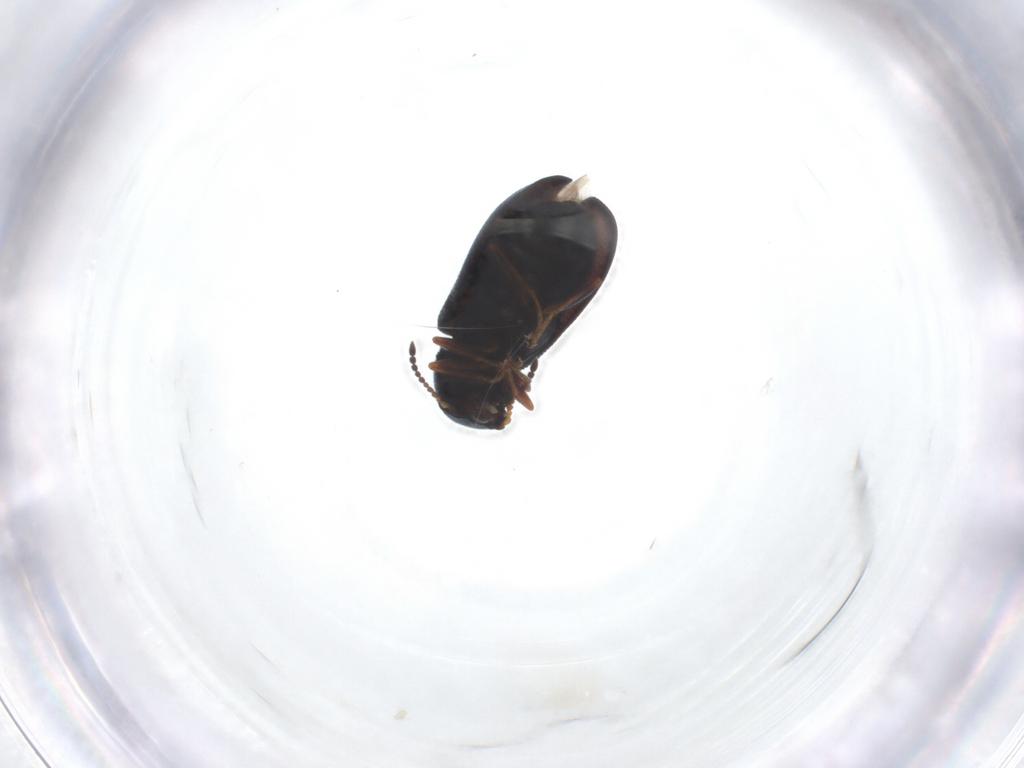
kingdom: Animalia
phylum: Arthropoda
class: Insecta
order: Coleoptera
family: Melyridae
